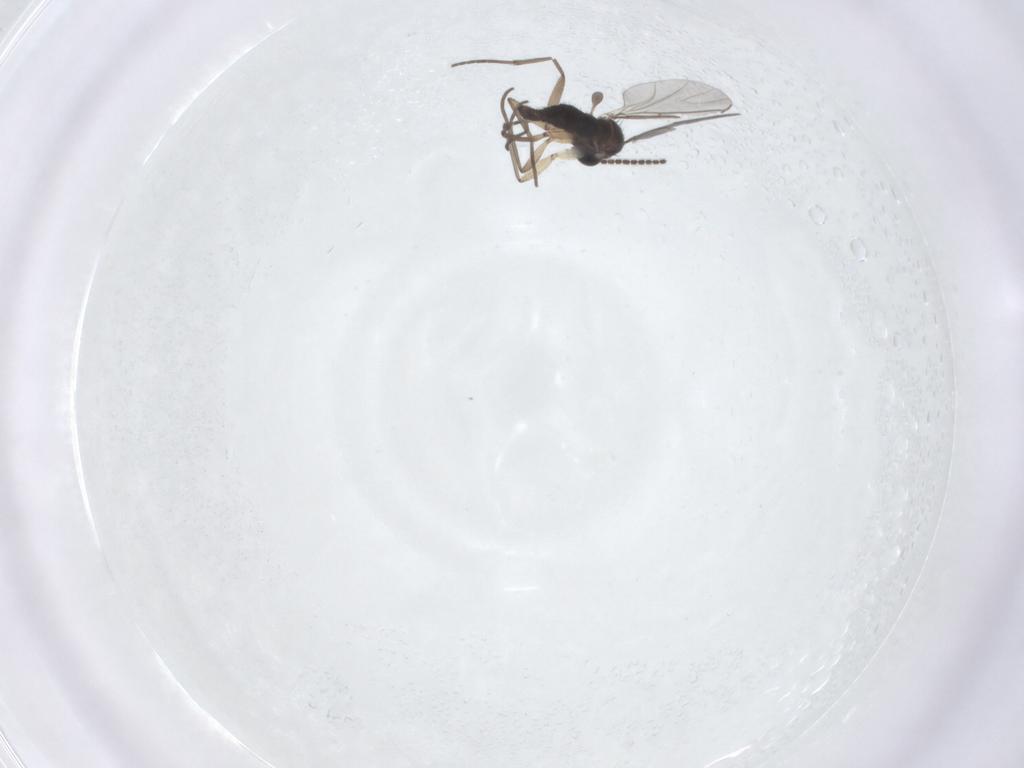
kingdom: Animalia
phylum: Arthropoda
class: Insecta
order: Diptera
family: Sciaridae
